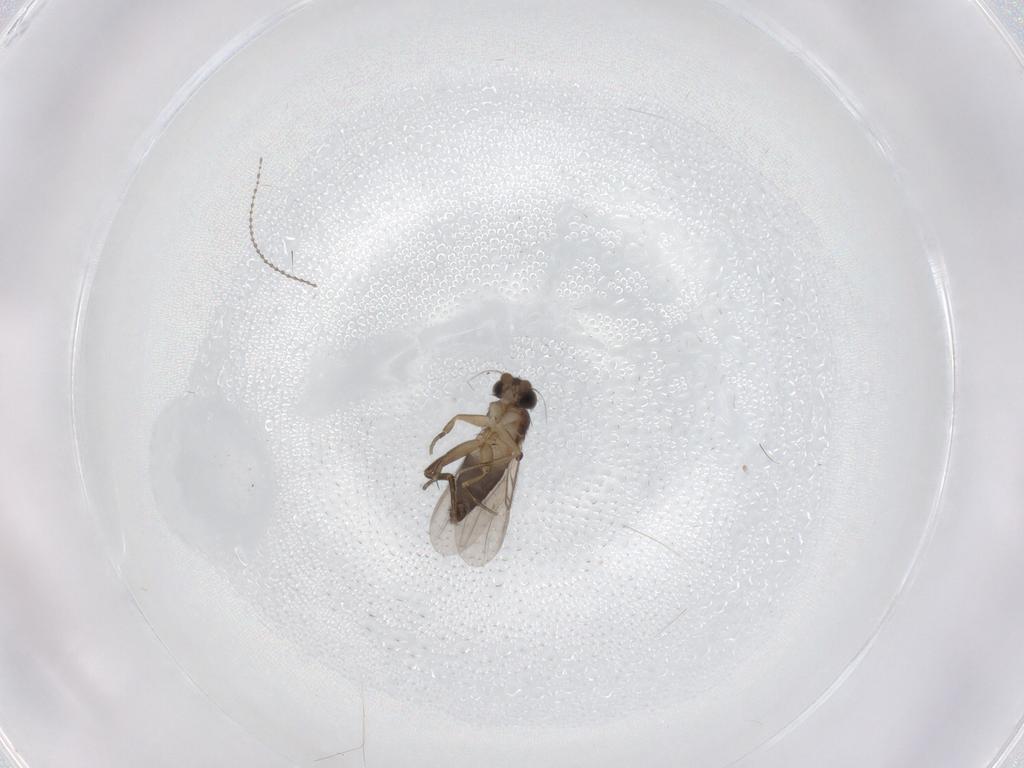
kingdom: Animalia
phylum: Arthropoda
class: Insecta
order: Diptera
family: Phoridae
